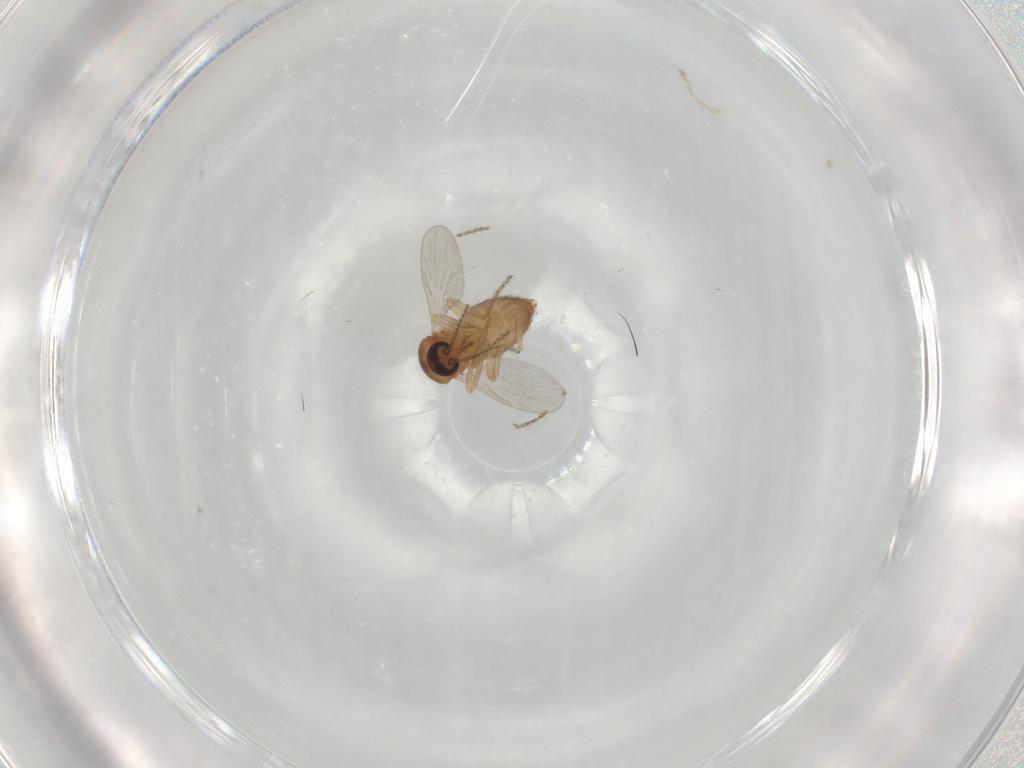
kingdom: Animalia
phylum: Arthropoda
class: Insecta
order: Diptera
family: Ceratopogonidae
